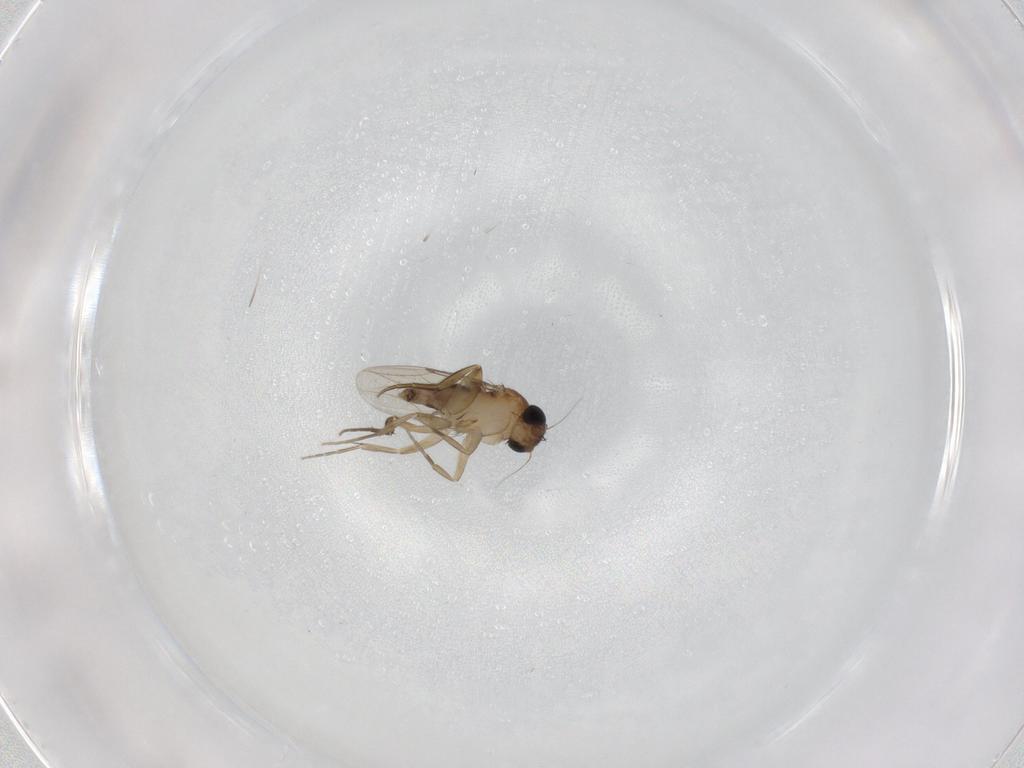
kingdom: Animalia
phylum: Arthropoda
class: Insecta
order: Diptera
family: Phoridae
